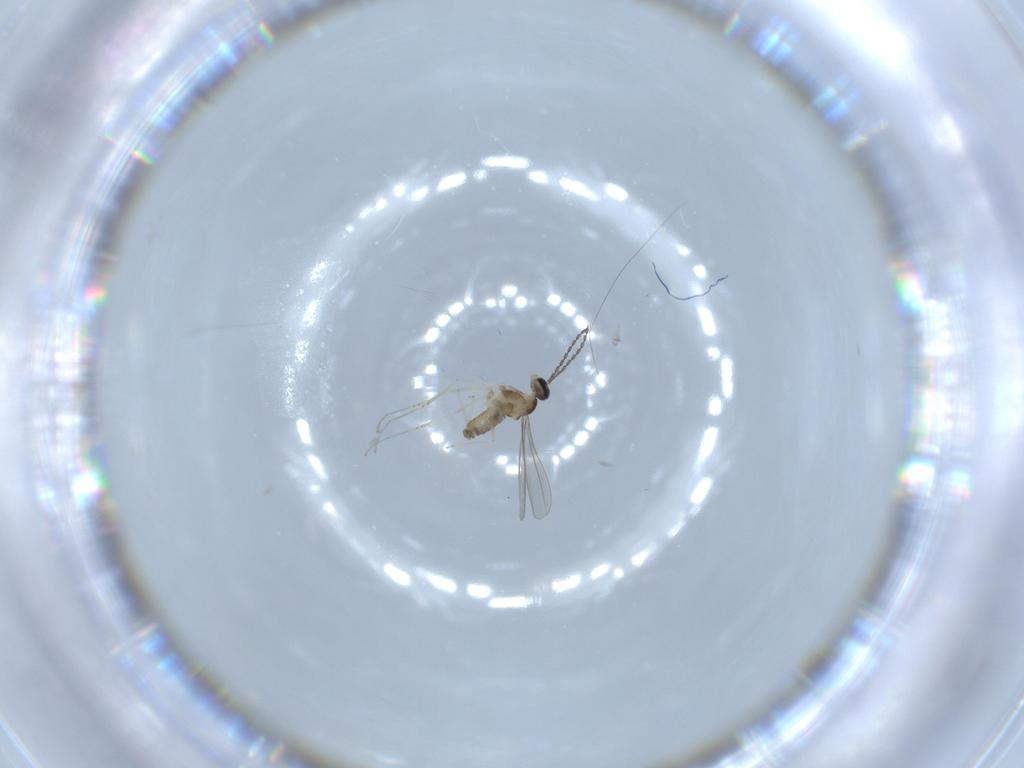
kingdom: Animalia
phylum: Arthropoda
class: Insecta
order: Diptera
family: Cecidomyiidae
